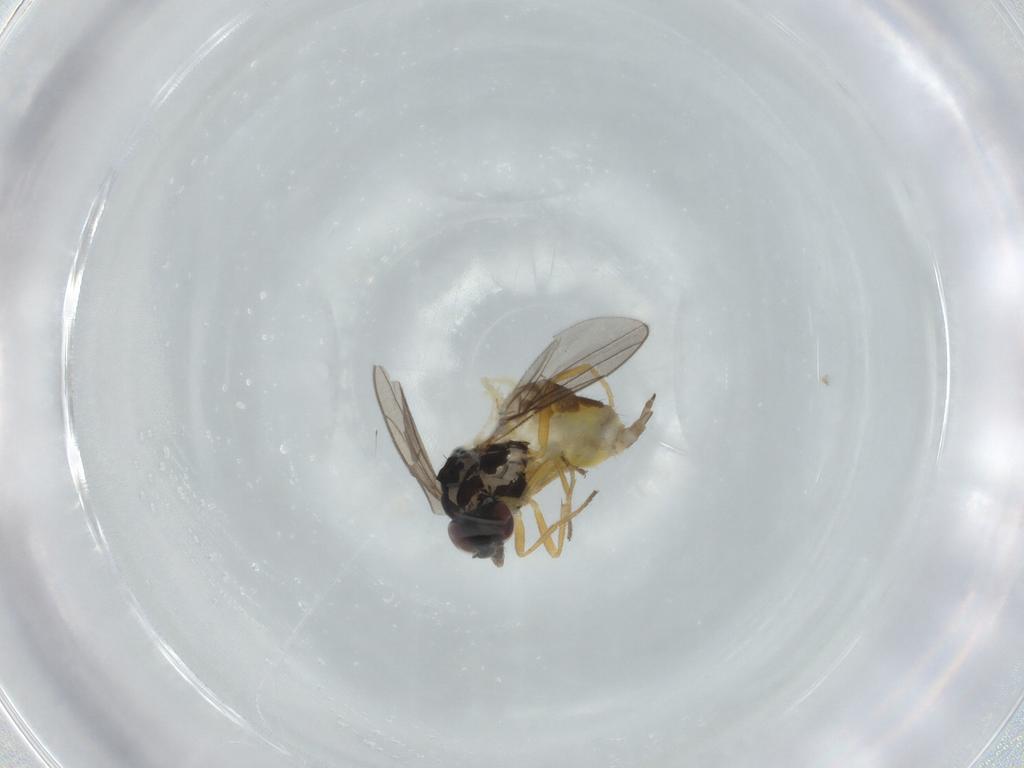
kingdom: Animalia
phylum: Arthropoda
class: Insecta
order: Diptera
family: Chloropidae
